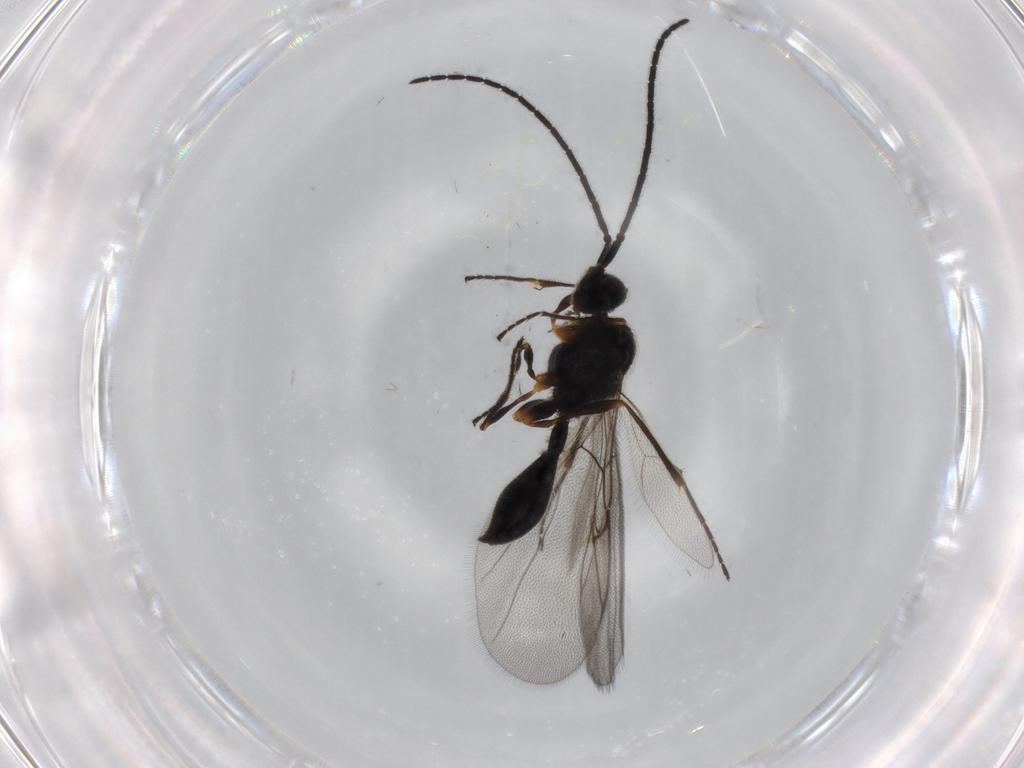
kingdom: Animalia
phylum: Arthropoda
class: Insecta
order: Hymenoptera
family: Diapriidae
